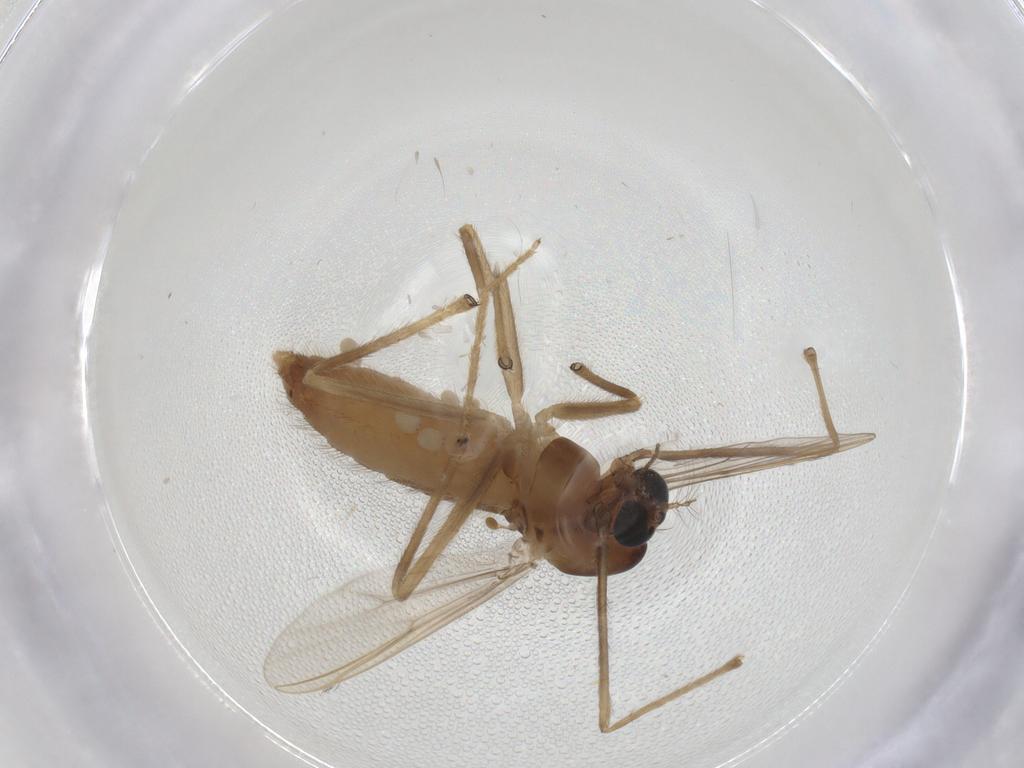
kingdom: Animalia
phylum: Arthropoda
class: Insecta
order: Diptera
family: Chironomidae
